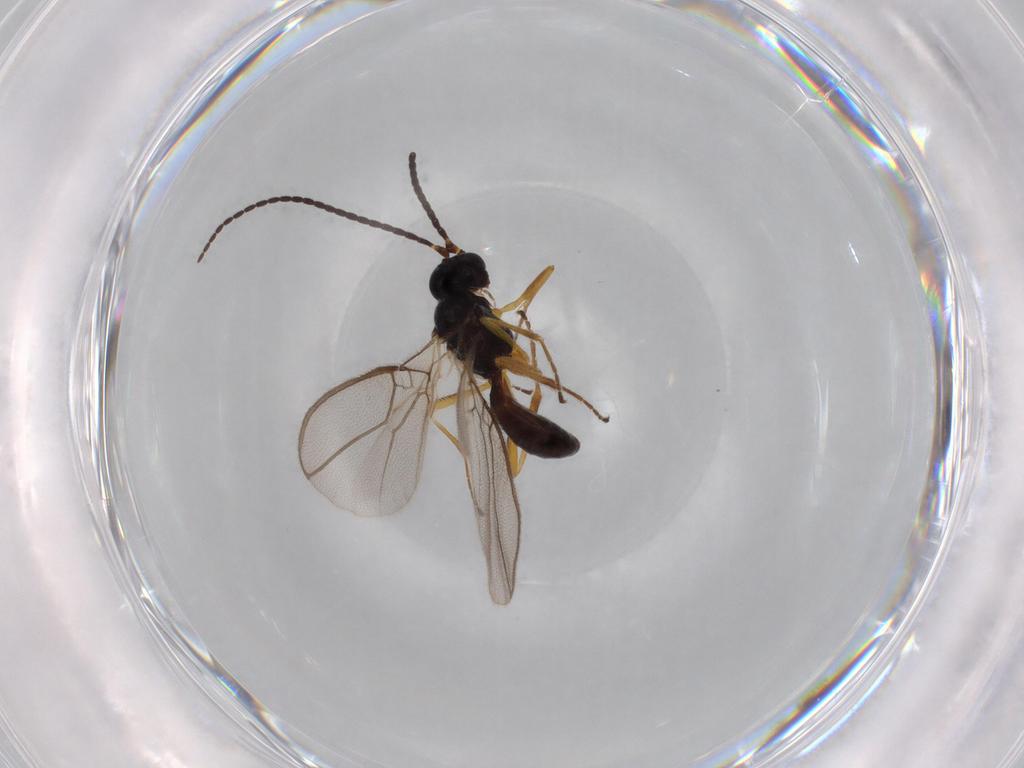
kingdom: Animalia
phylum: Arthropoda
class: Insecta
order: Hymenoptera
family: Braconidae
